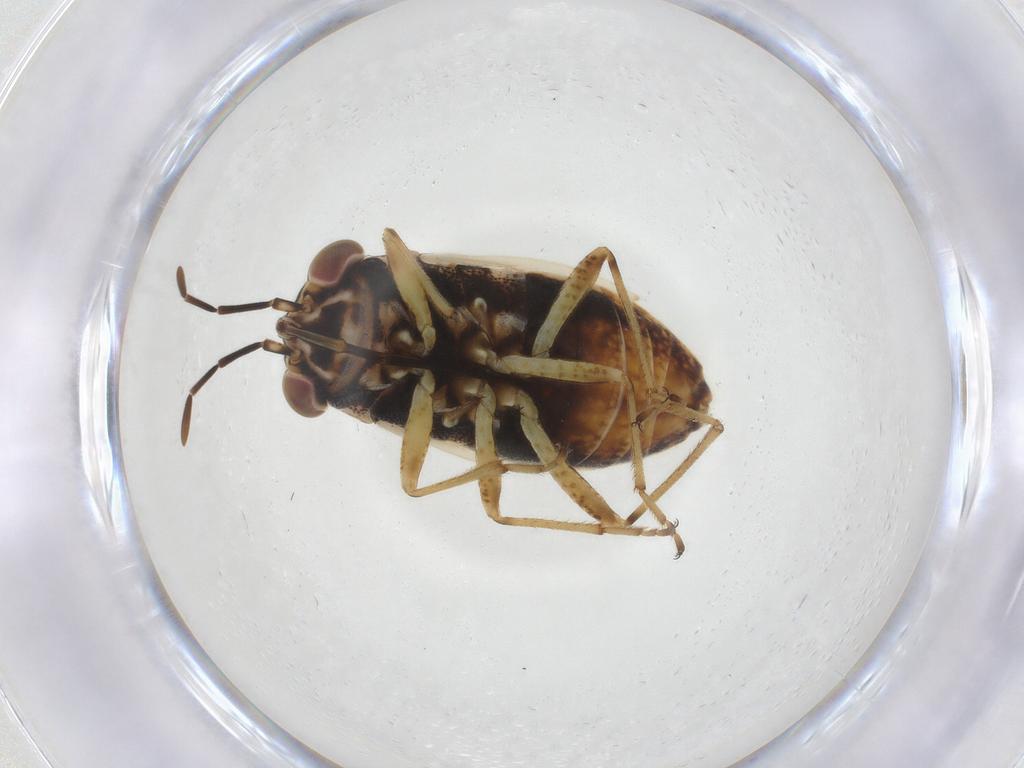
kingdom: Animalia
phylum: Arthropoda
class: Insecta
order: Hemiptera
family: Geocoridae
